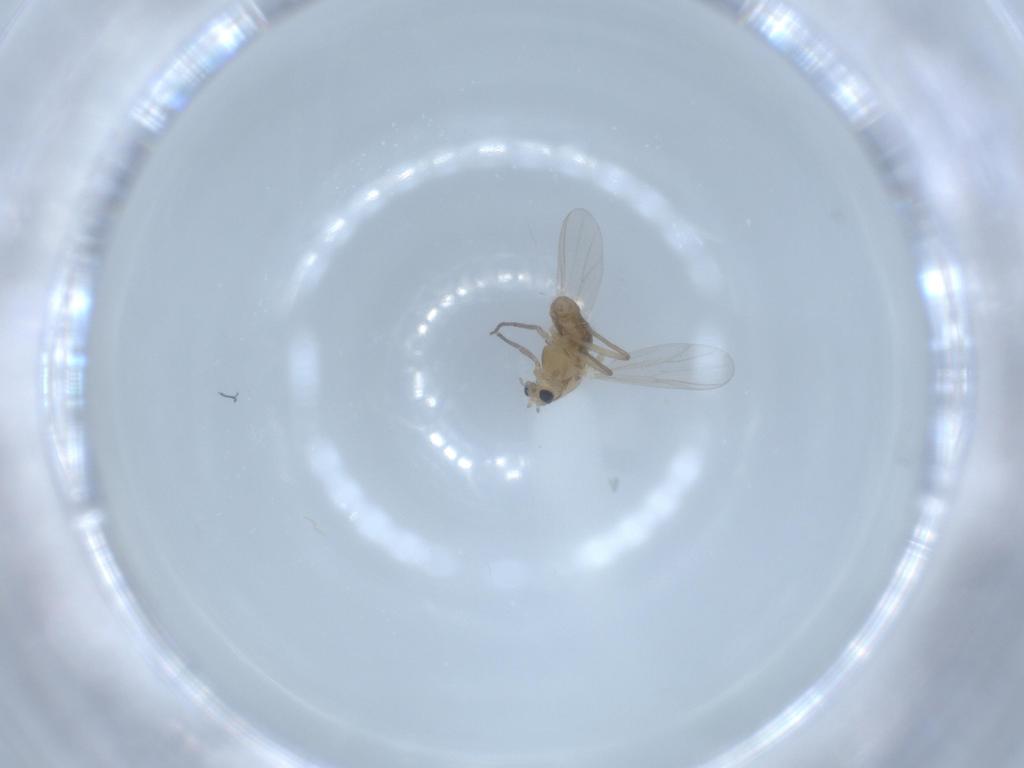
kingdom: Animalia
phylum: Arthropoda
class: Insecta
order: Diptera
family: Chironomidae
